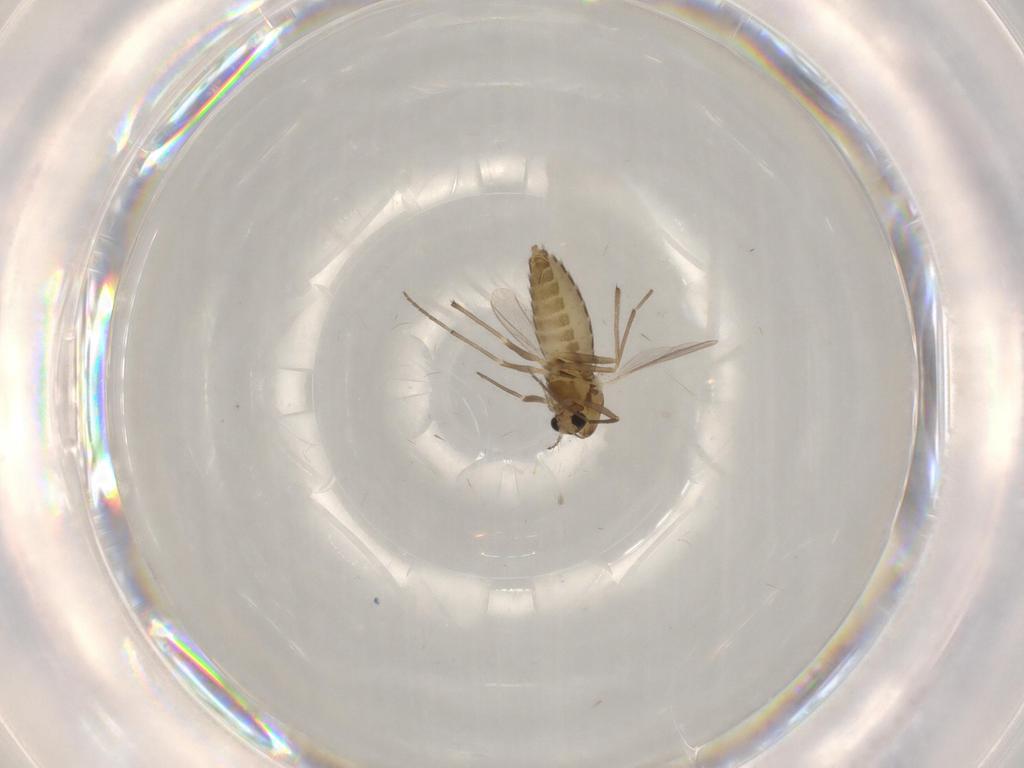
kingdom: Animalia
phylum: Arthropoda
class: Insecta
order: Diptera
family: Chironomidae
